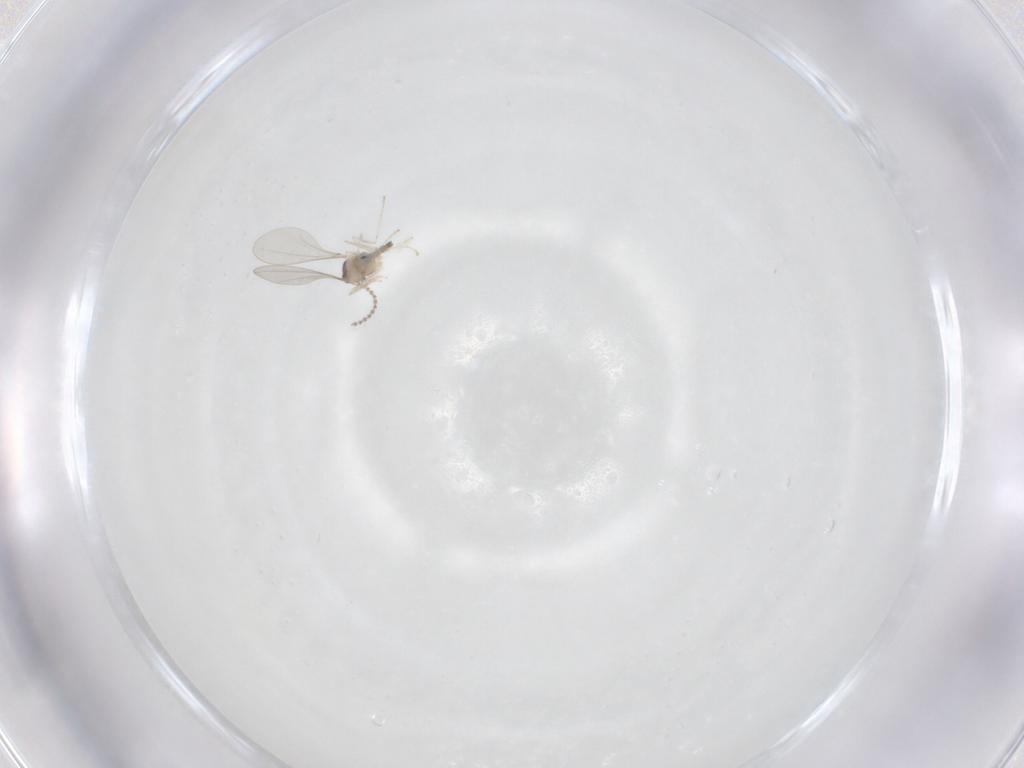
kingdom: Animalia
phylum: Arthropoda
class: Insecta
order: Diptera
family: Cecidomyiidae
